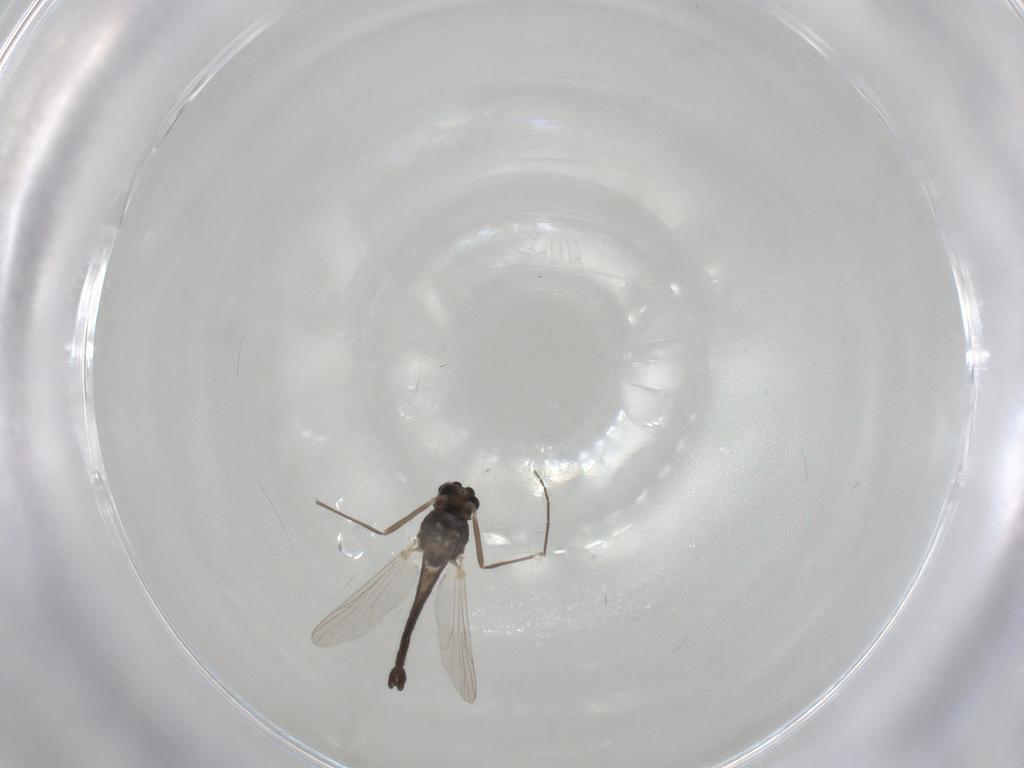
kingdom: Animalia
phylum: Arthropoda
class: Insecta
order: Diptera
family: Chironomidae
